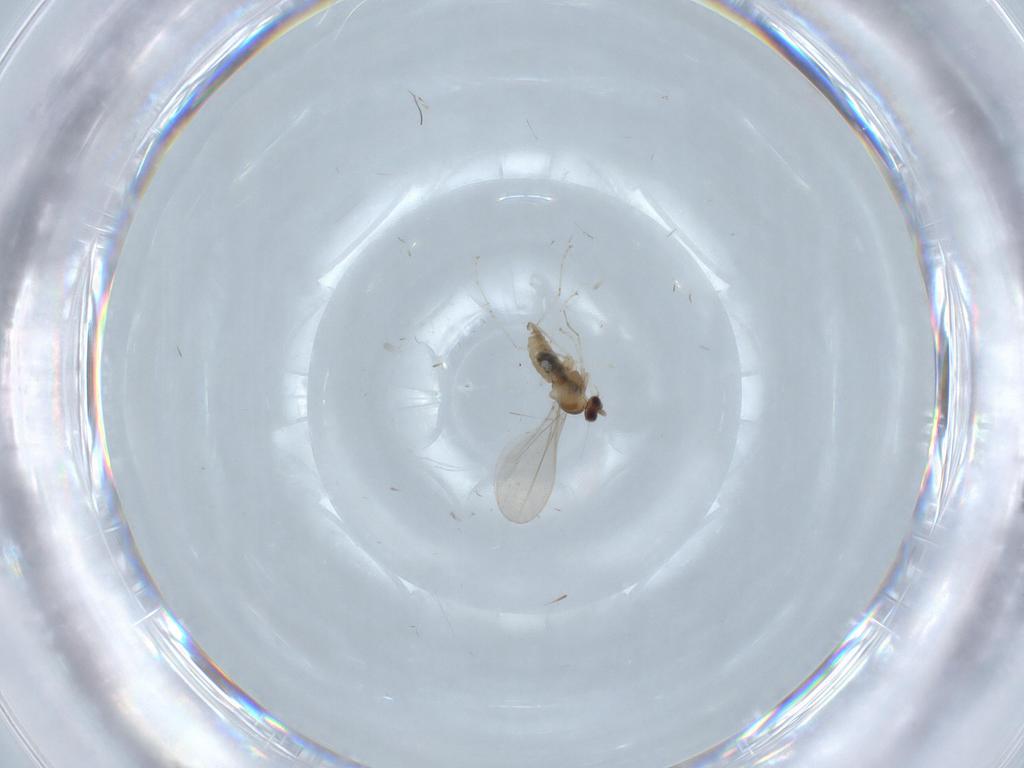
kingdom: Animalia
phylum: Arthropoda
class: Insecta
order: Diptera
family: Cecidomyiidae
